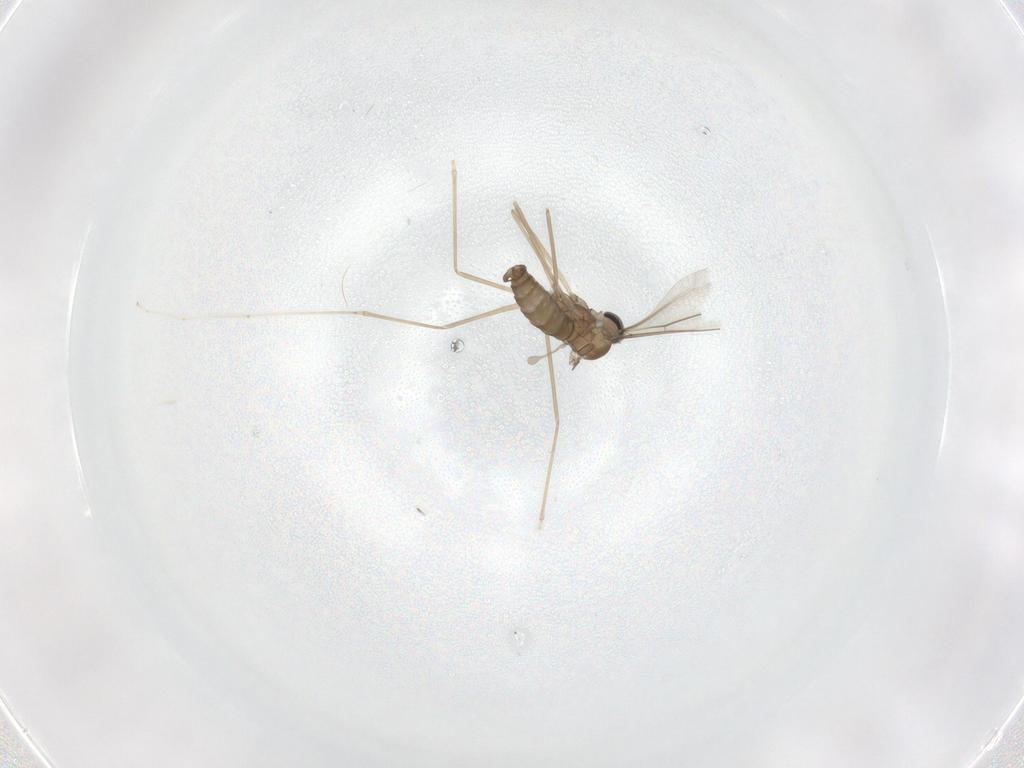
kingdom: Animalia
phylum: Arthropoda
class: Insecta
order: Diptera
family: Cecidomyiidae
